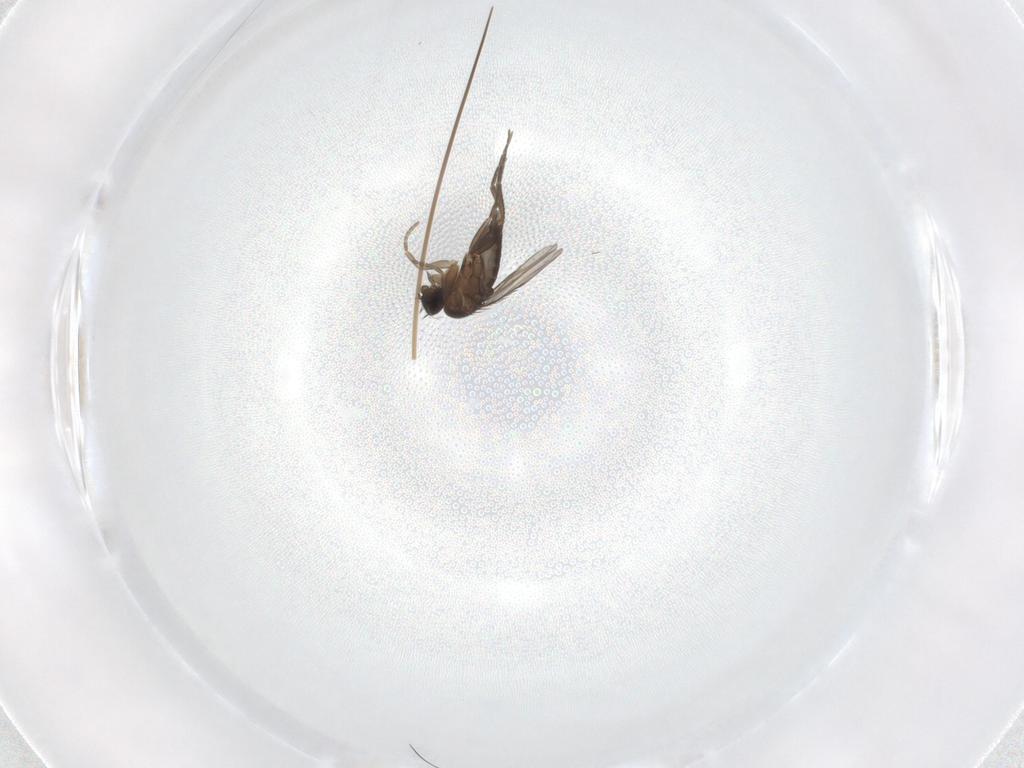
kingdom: Animalia
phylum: Arthropoda
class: Insecta
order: Diptera
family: Phoridae
